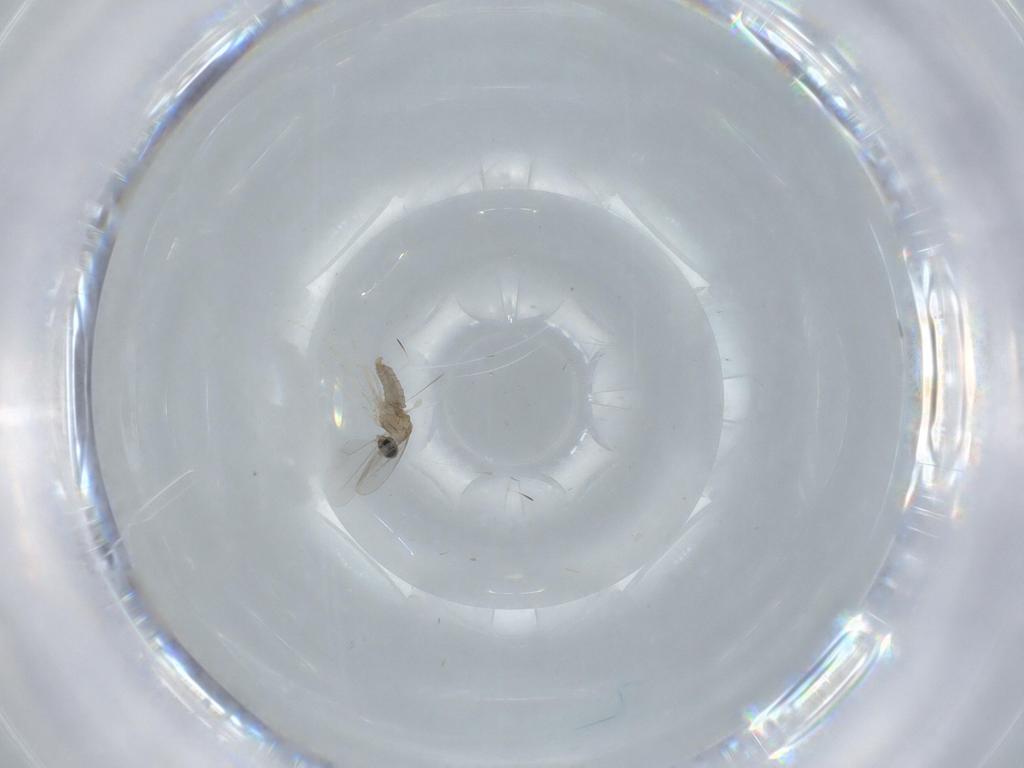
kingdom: Animalia
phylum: Arthropoda
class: Insecta
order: Diptera
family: Cecidomyiidae
